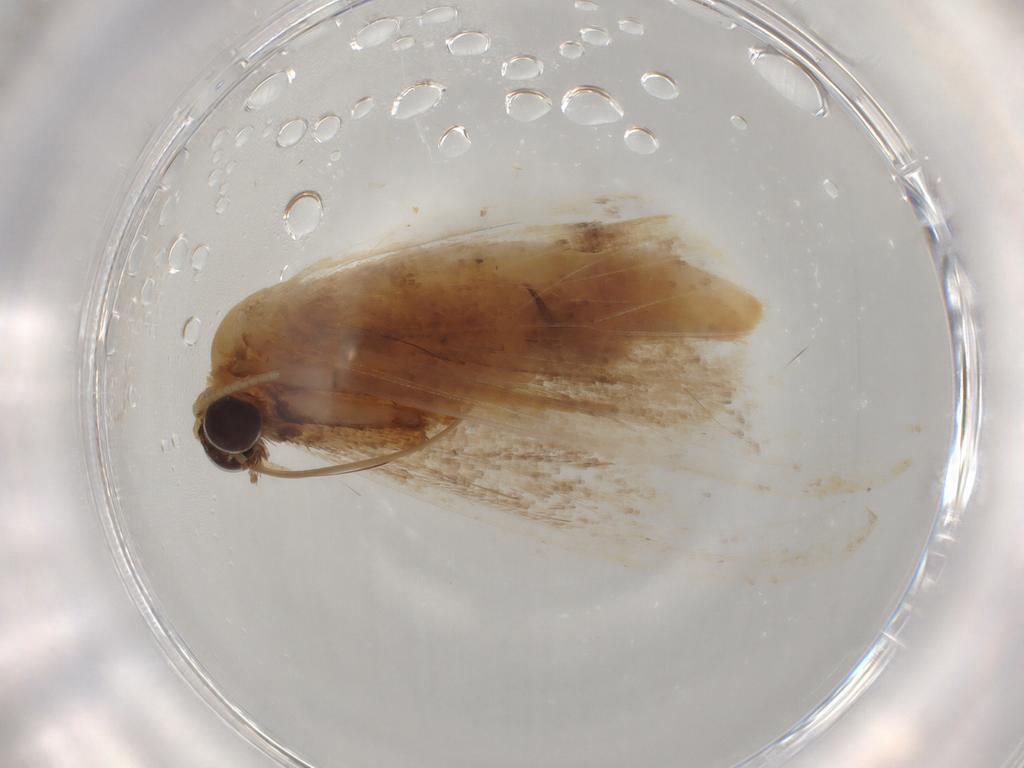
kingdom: Animalia
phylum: Arthropoda
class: Insecta
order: Lepidoptera
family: Geometridae
